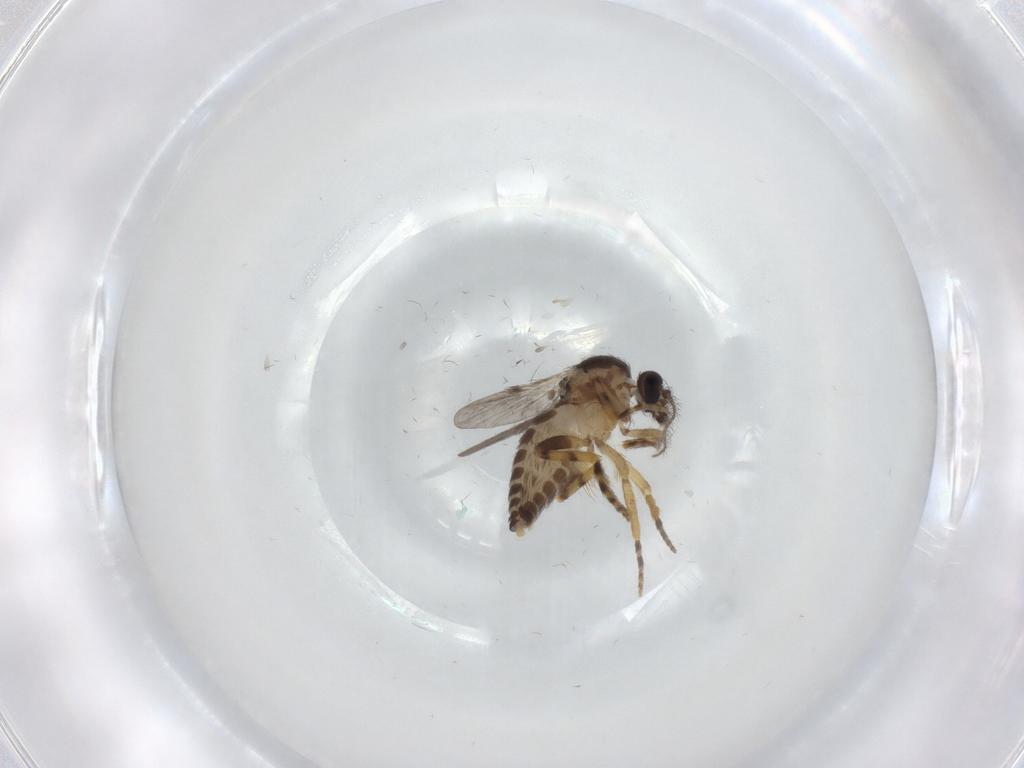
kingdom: Animalia
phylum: Arthropoda
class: Insecta
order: Diptera
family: Ceratopogonidae
